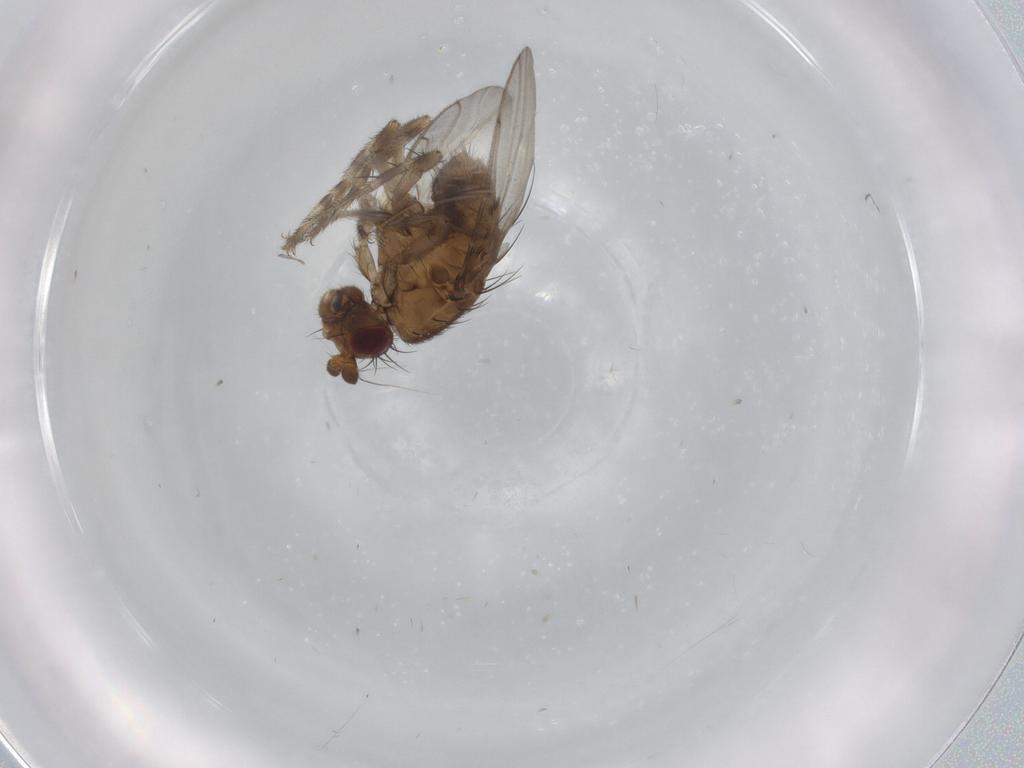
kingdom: Animalia
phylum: Arthropoda
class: Insecta
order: Diptera
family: Sphaeroceridae
